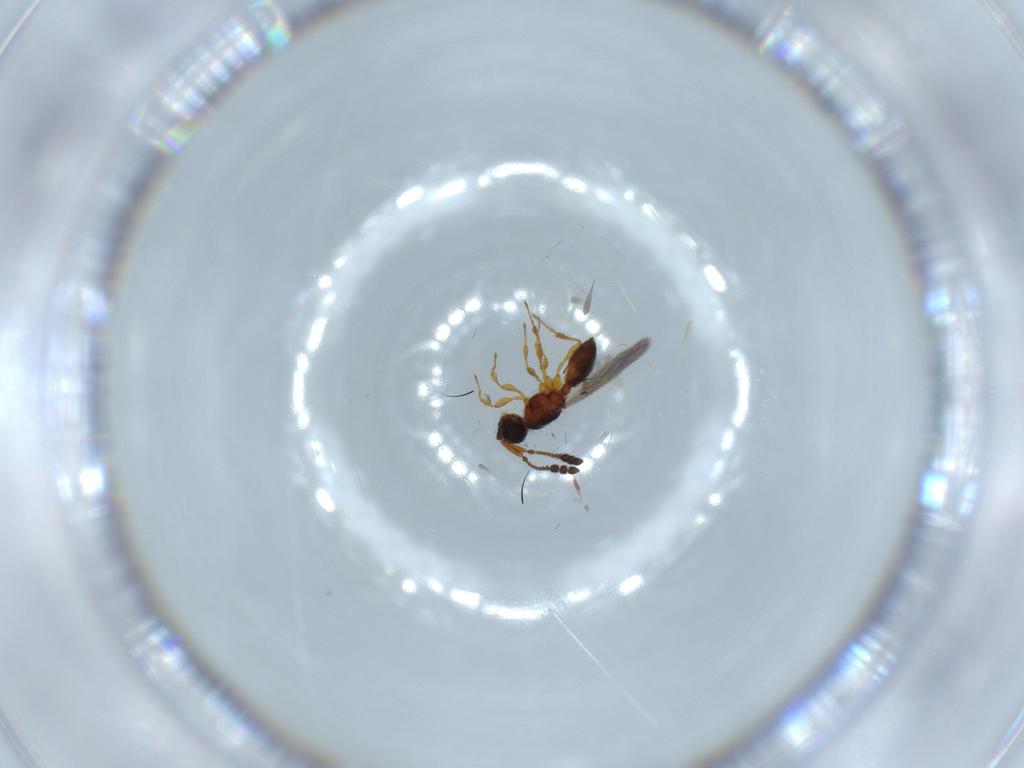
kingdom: Animalia
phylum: Arthropoda
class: Insecta
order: Hymenoptera
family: Diapriidae
